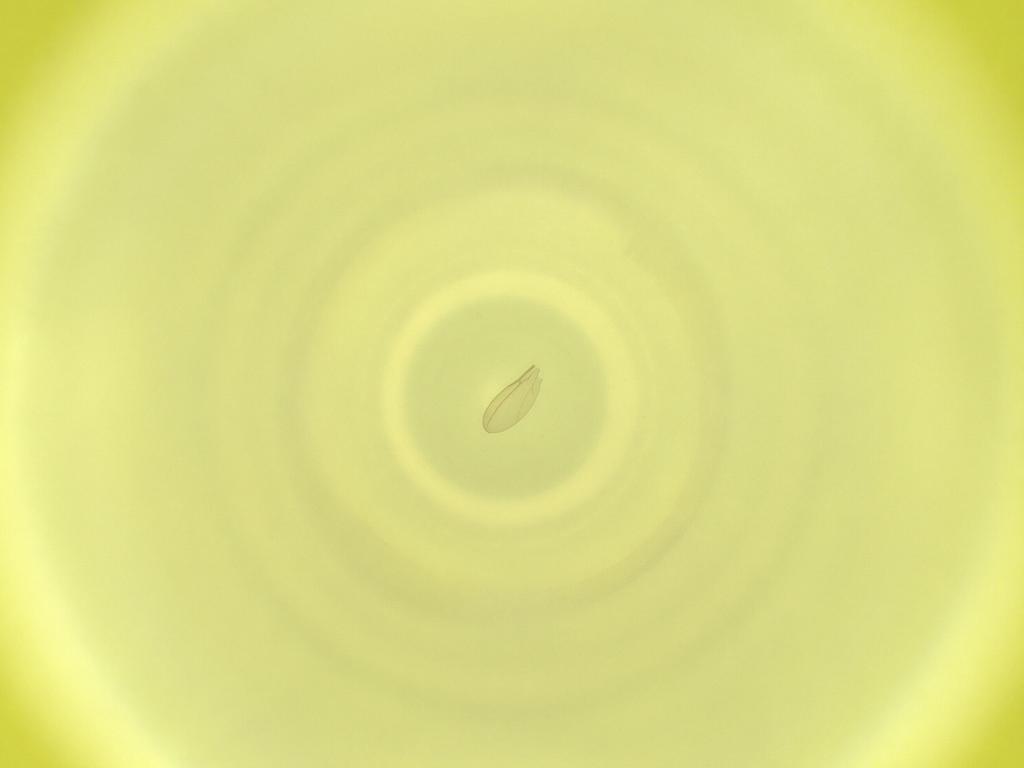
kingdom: Animalia
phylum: Arthropoda
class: Insecta
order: Diptera
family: Cecidomyiidae
